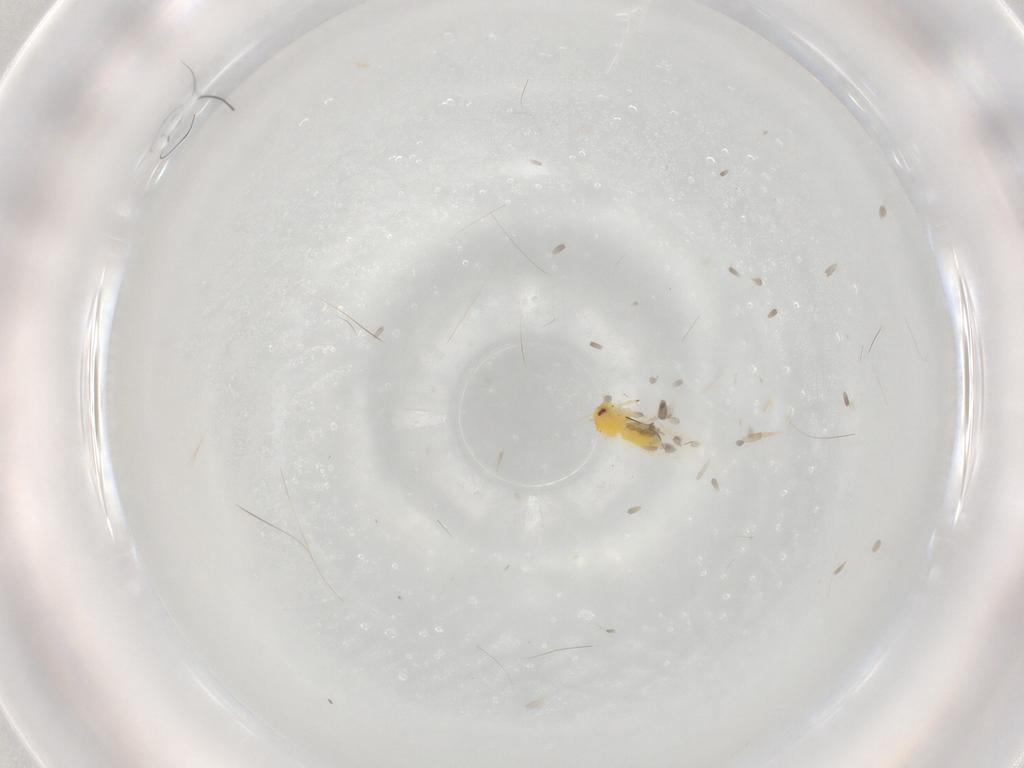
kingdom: Animalia
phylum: Arthropoda
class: Insecta
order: Hemiptera
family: Aleyrodidae
